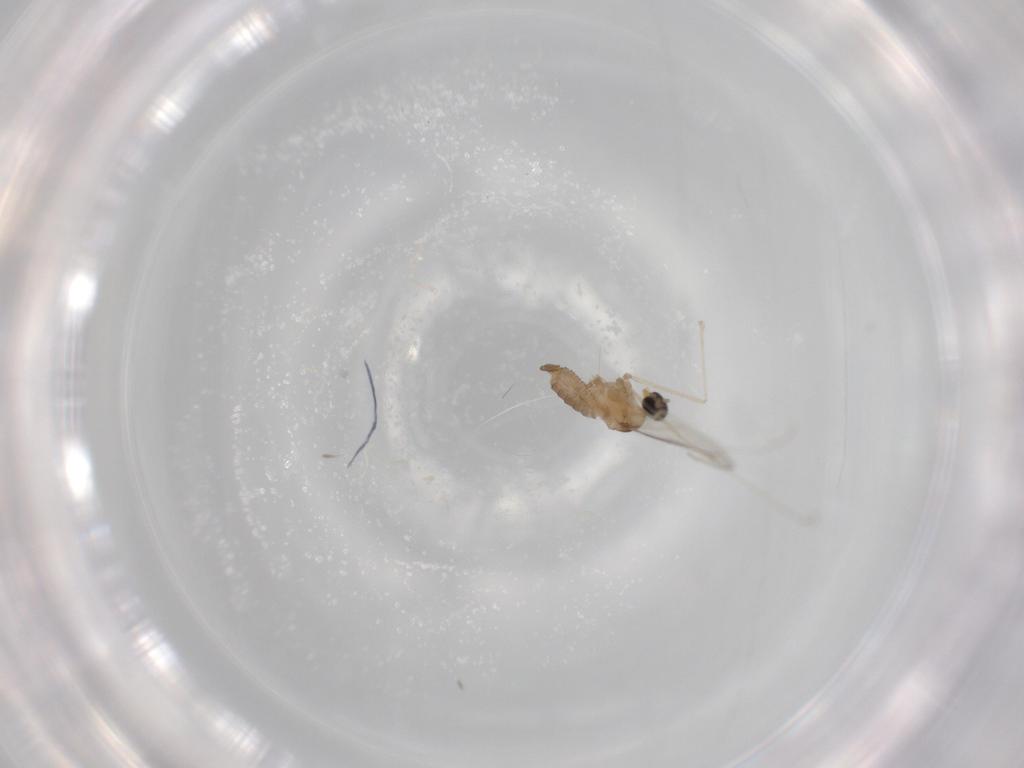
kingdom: Animalia
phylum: Arthropoda
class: Insecta
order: Diptera
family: Cecidomyiidae
